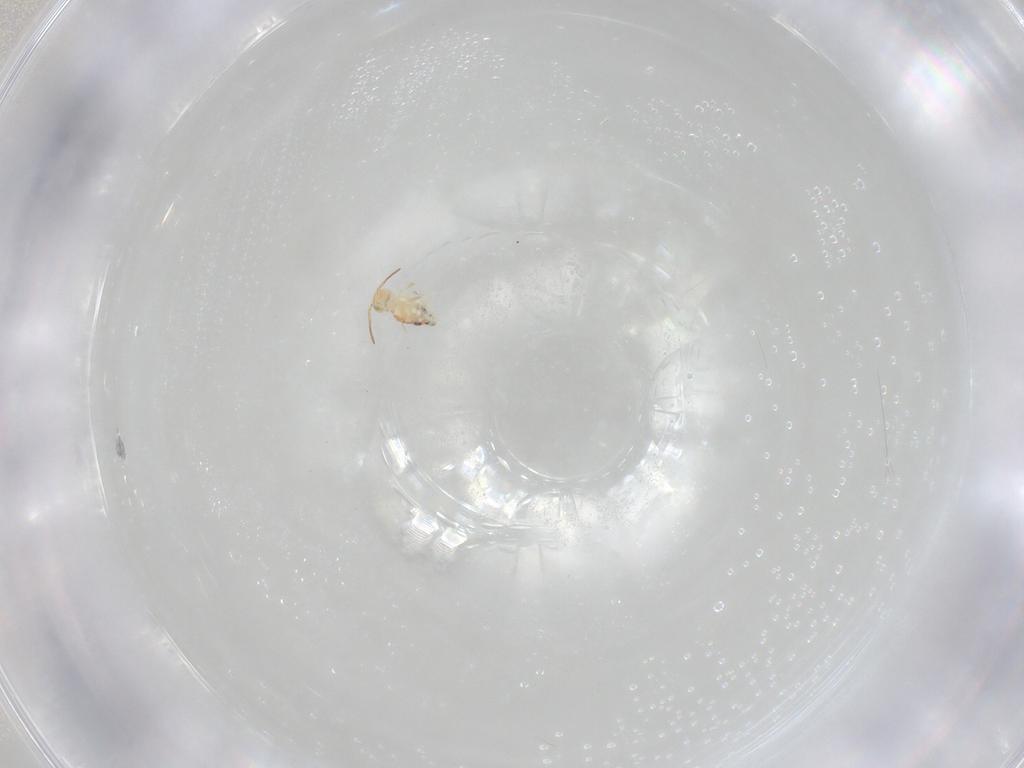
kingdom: Animalia
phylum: Arthropoda
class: Collembola
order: Symphypleona
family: Bourletiellidae
